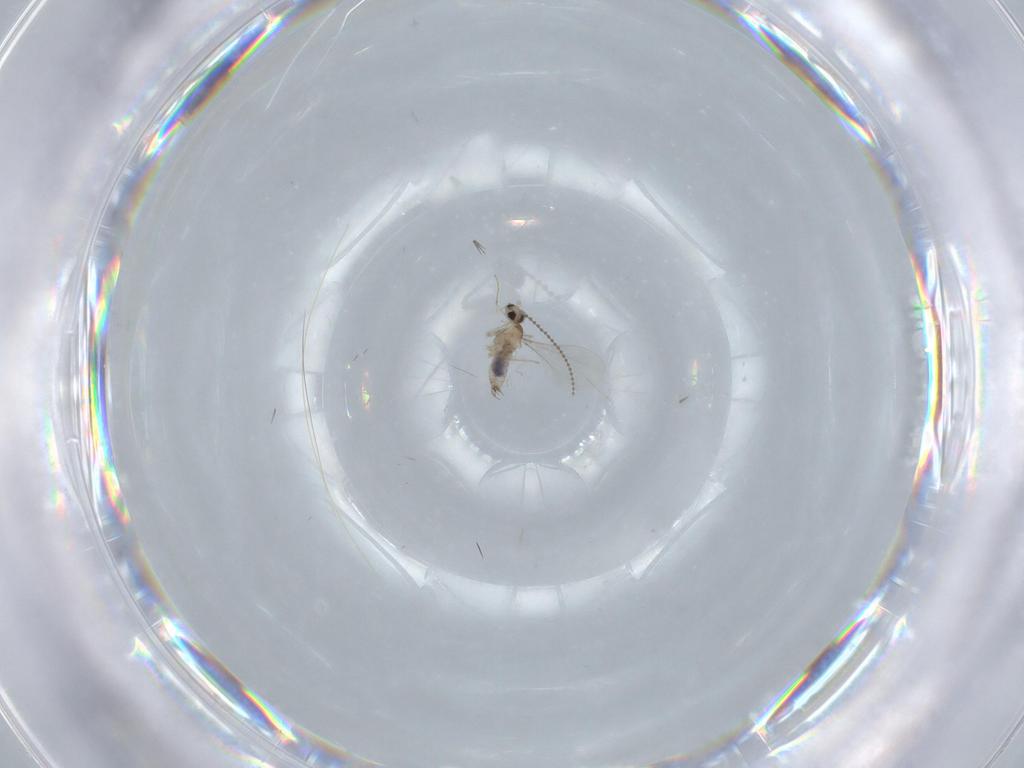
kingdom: Animalia
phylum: Arthropoda
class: Insecta
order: Diptera
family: Cecidomyiidae
